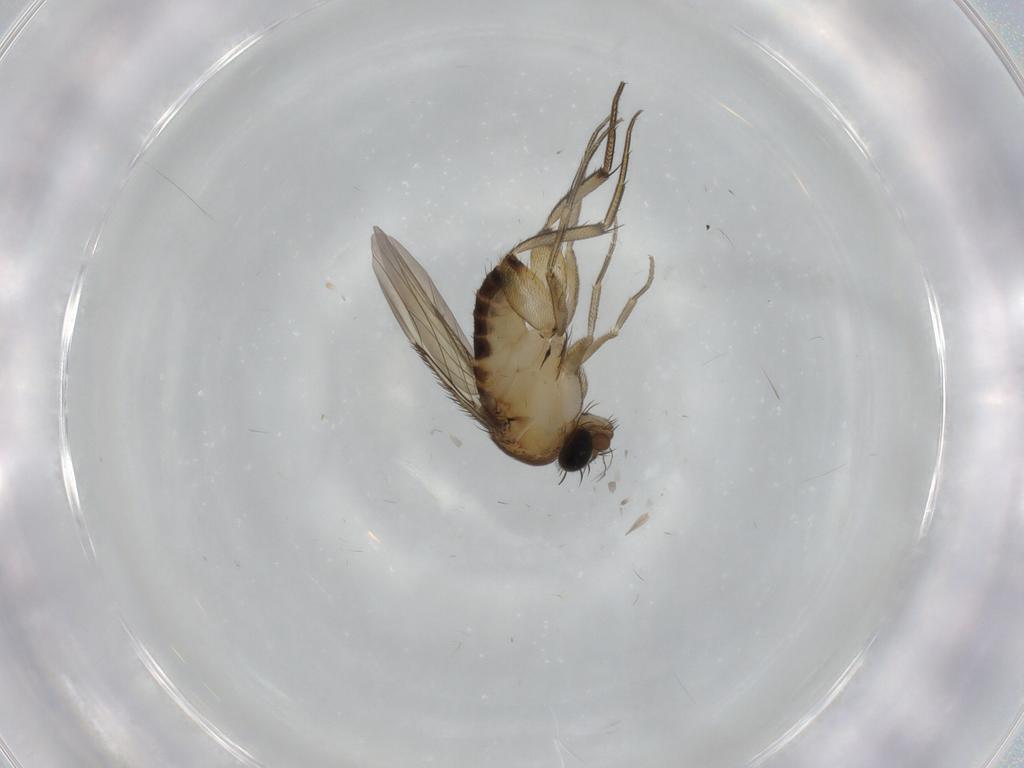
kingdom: Animalia
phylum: Arthropoda
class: Insecta
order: Diptera
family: Phoridae
